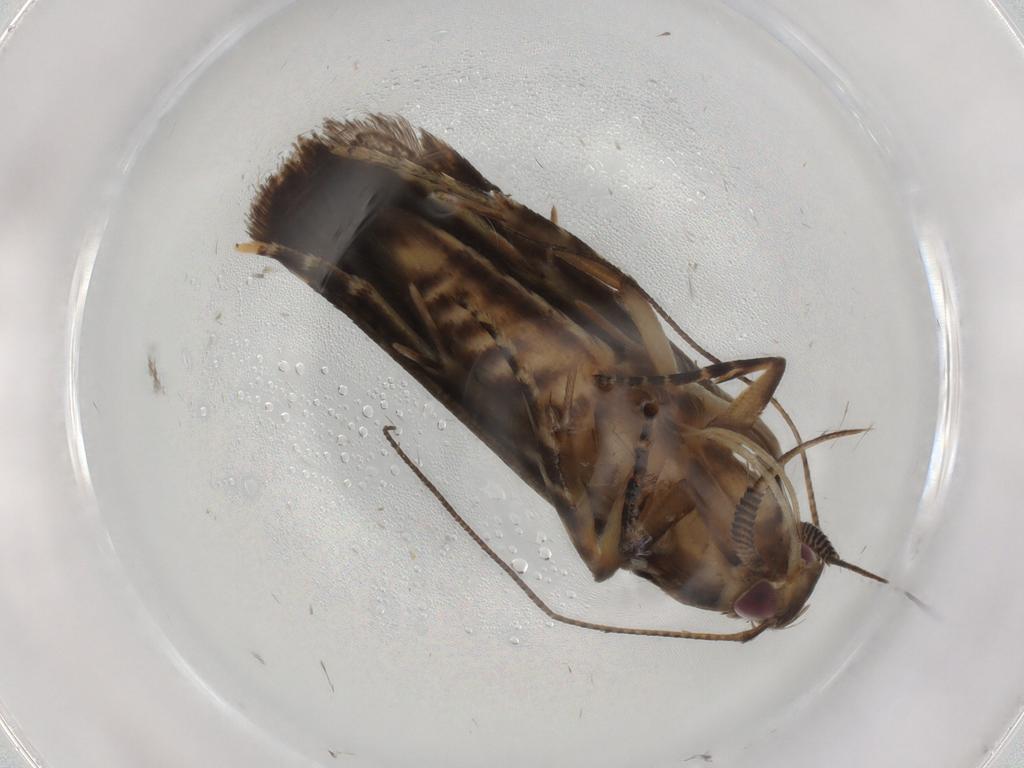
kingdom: Animalia
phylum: Arthropoda
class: Insecta
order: Lepidoptera
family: Gelechiidae
